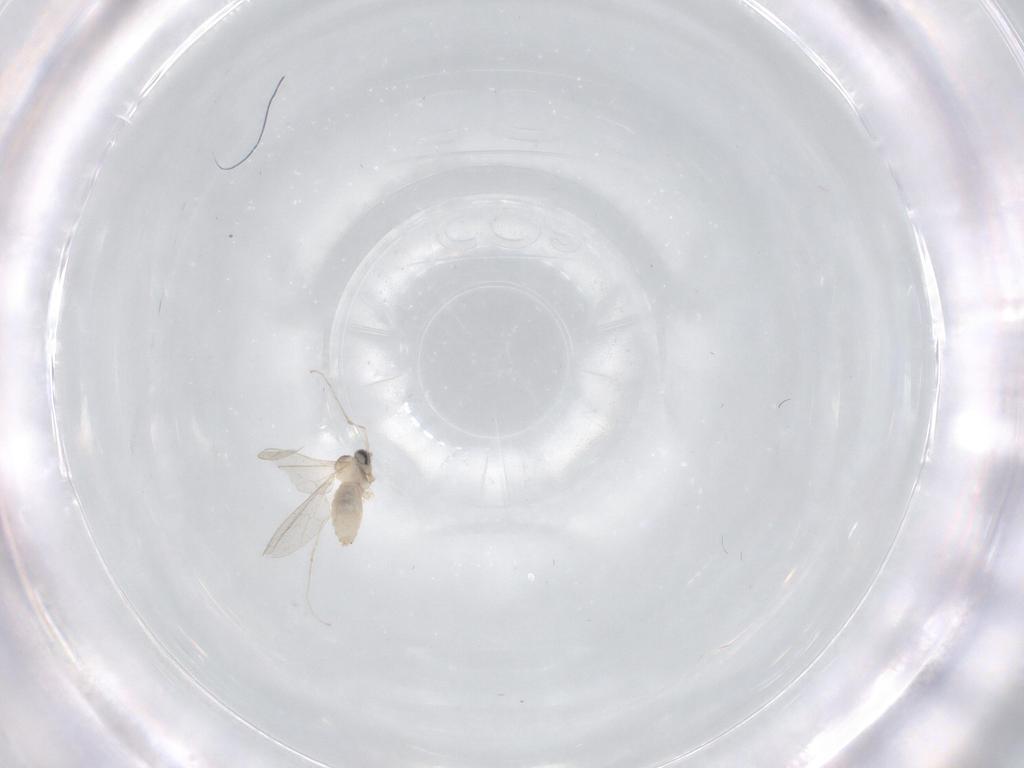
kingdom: Animalia
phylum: Arthropoda
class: Insecta
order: Diptera
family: Cecidomyiidae
